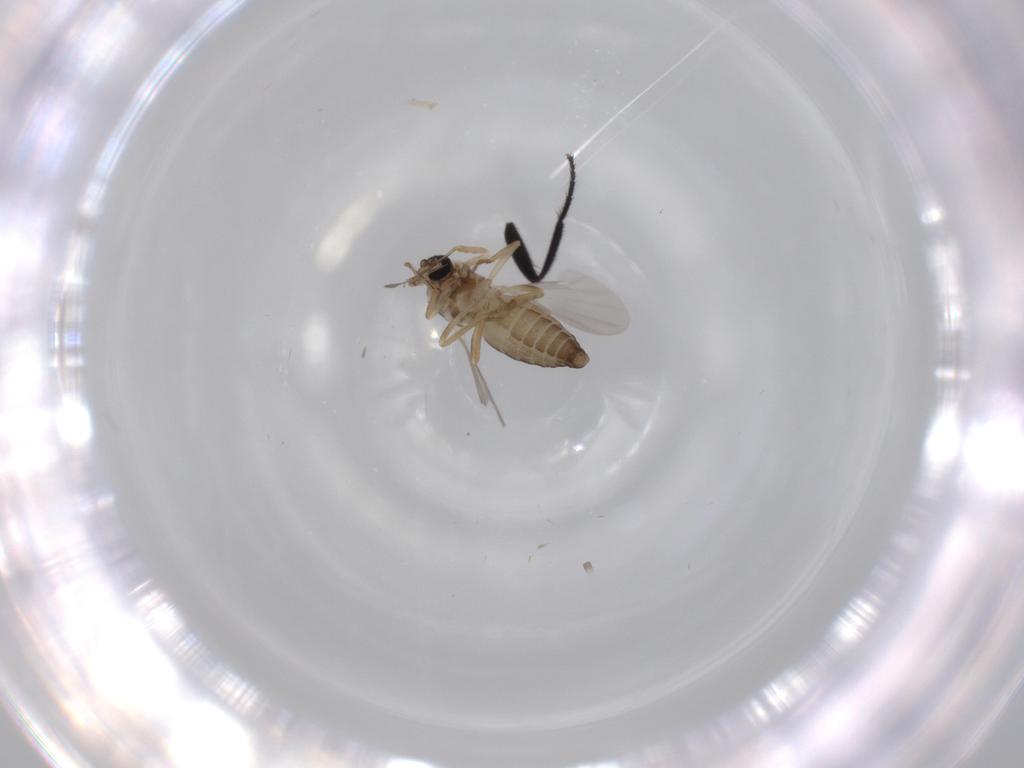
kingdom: Animalia
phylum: Arthropoda
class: Insecta
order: Diptera
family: Ceratopogonidae
